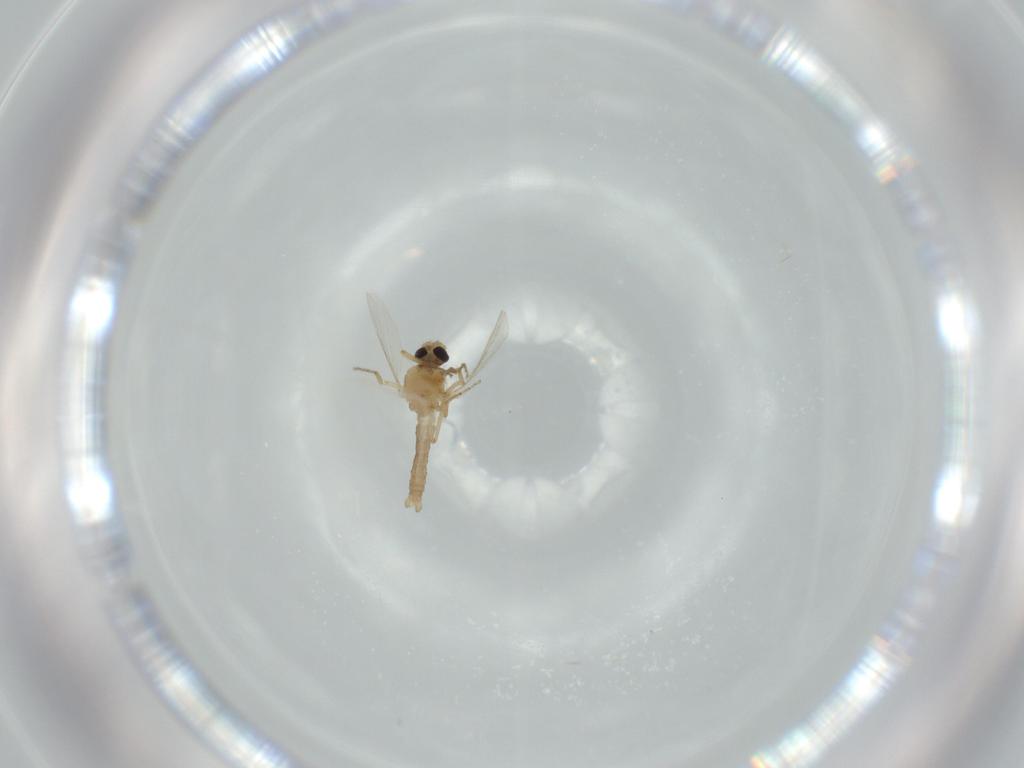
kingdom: Animalia
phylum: Arthropoda
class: Insecta
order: Diptera
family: Ceratopogonidae
